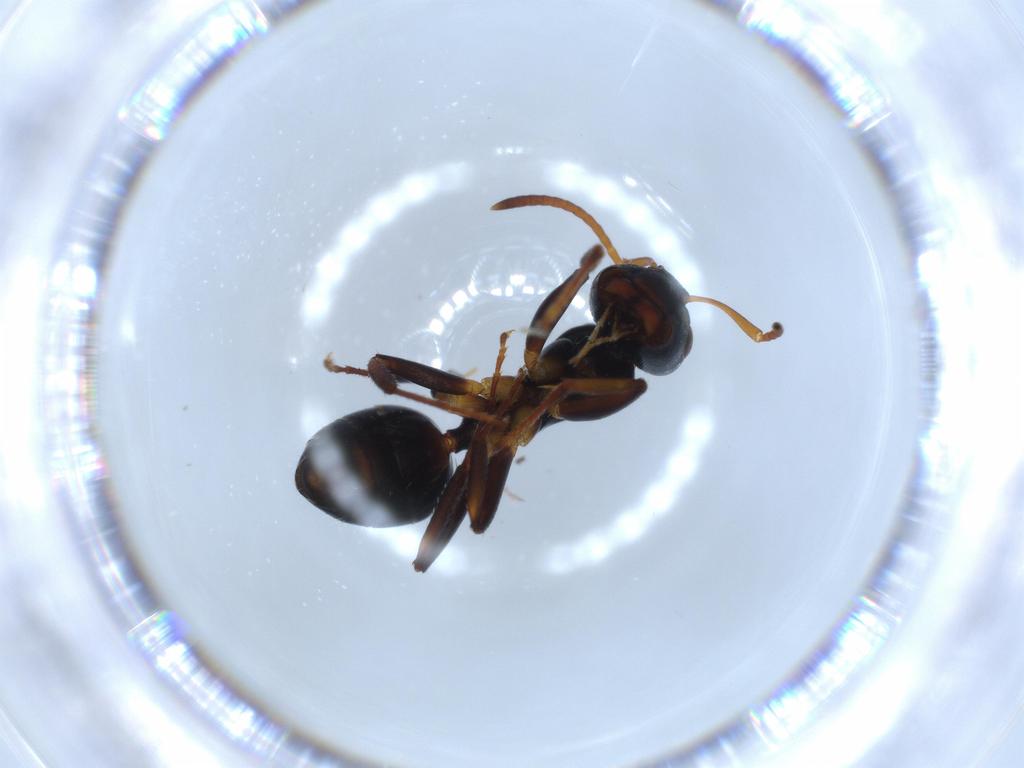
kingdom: Animalia
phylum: Arthropoda
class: Insecta
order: Hymenoptera
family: Formicidae
